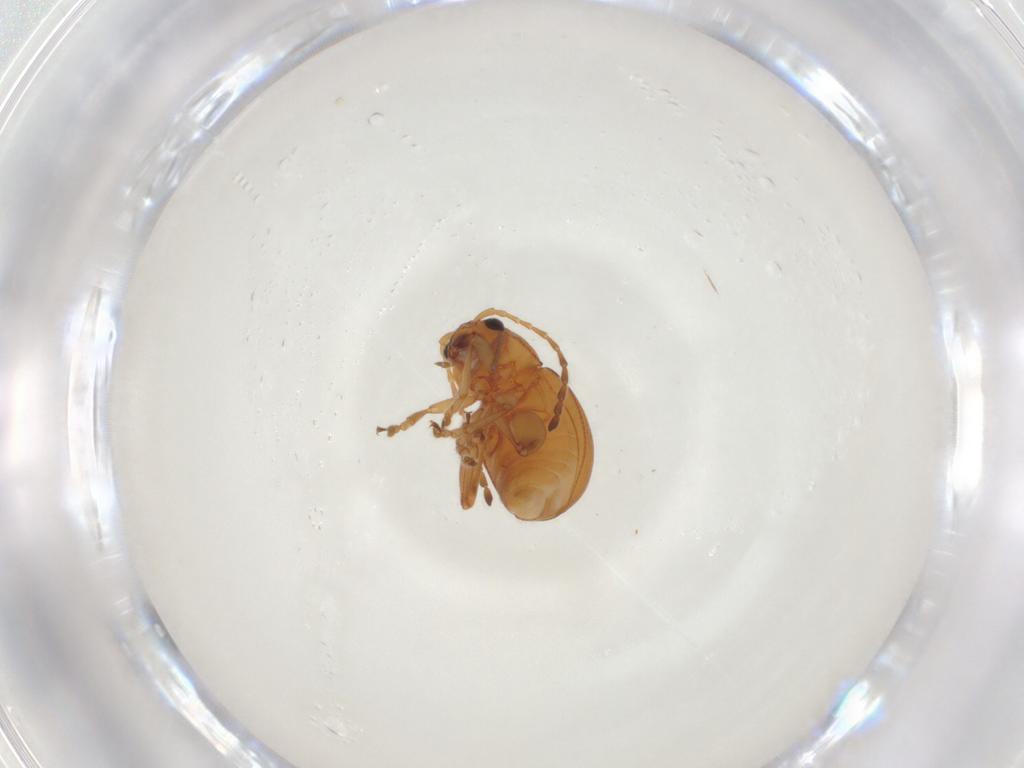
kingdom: Animalia
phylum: Arthropoda
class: Insecta
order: Coleoptera
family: Chrysomelidae
